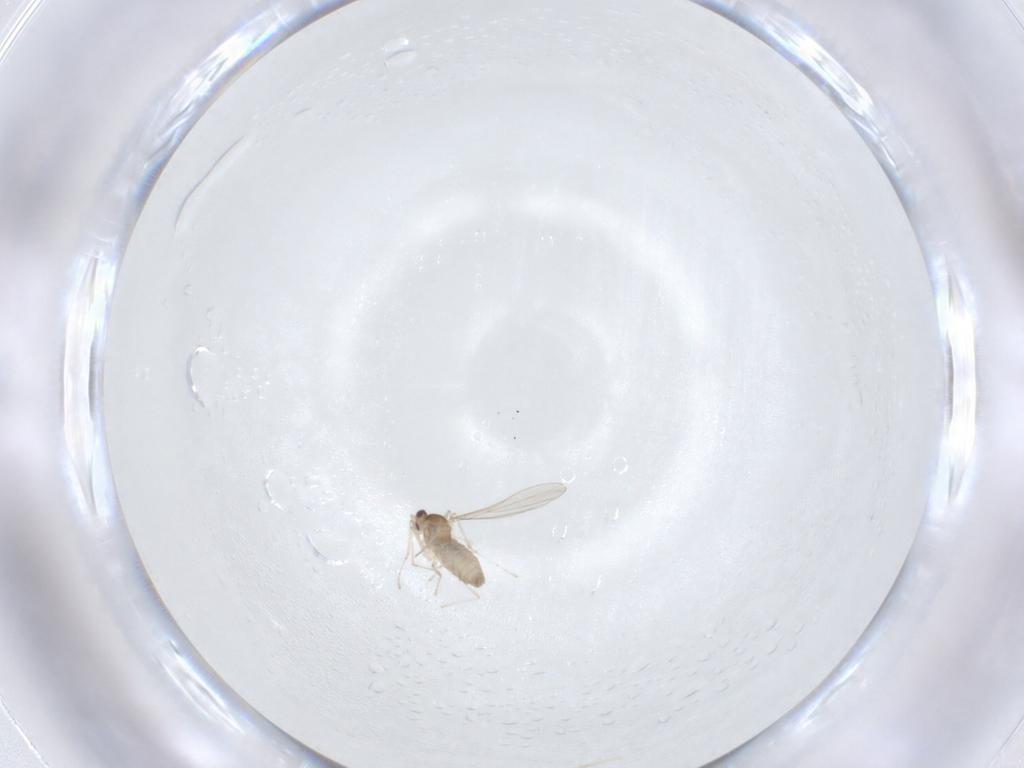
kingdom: Animalia
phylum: Arthropoda
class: Insecta
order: Diptera
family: Cecidomyiidae
